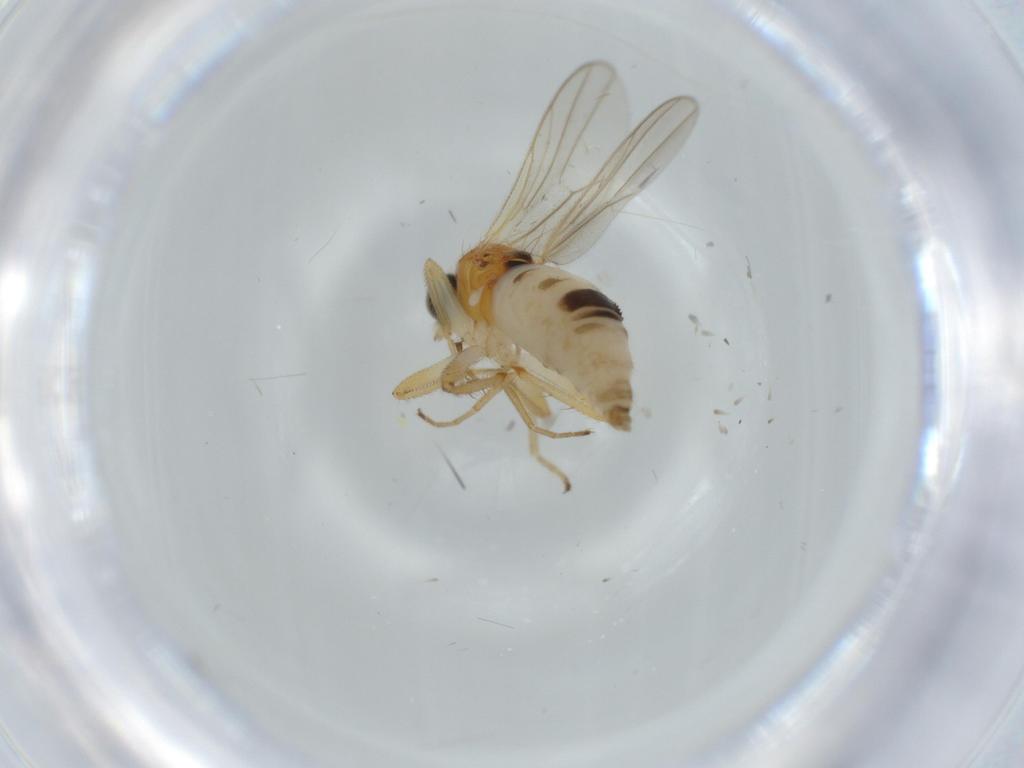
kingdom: Animalia
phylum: Arthropoda
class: Insecta
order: Diptera
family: Hybotidae
